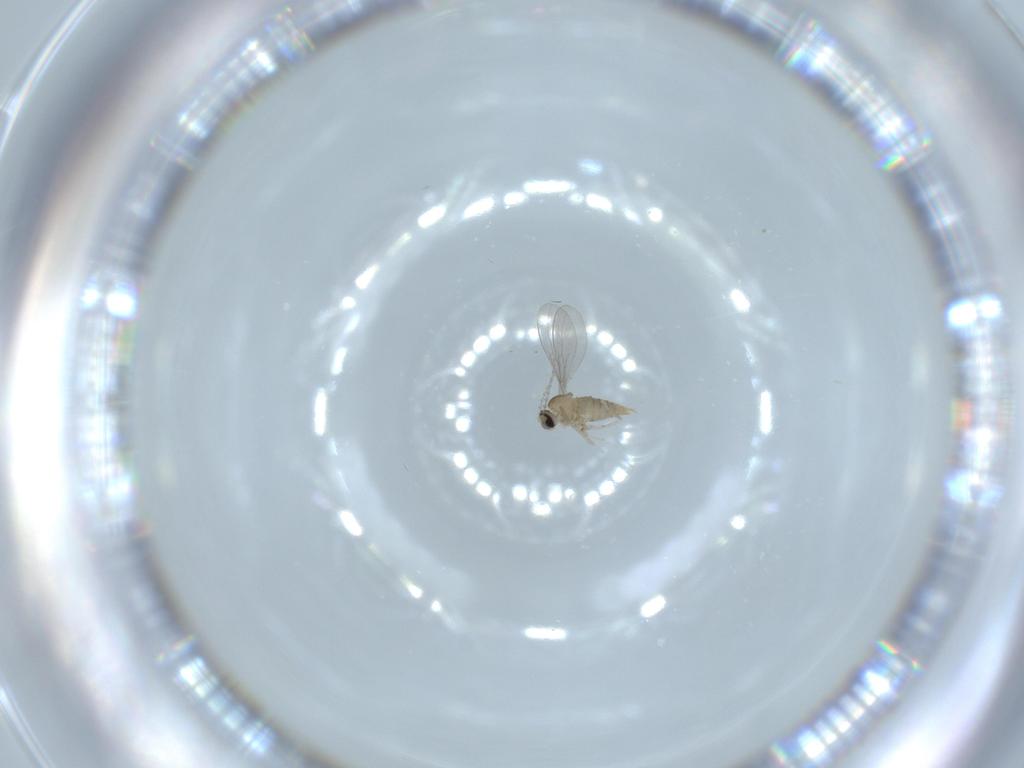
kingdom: Animalia
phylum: Arthropoda
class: Insecta
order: Diptera
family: Cecidomyiidae
